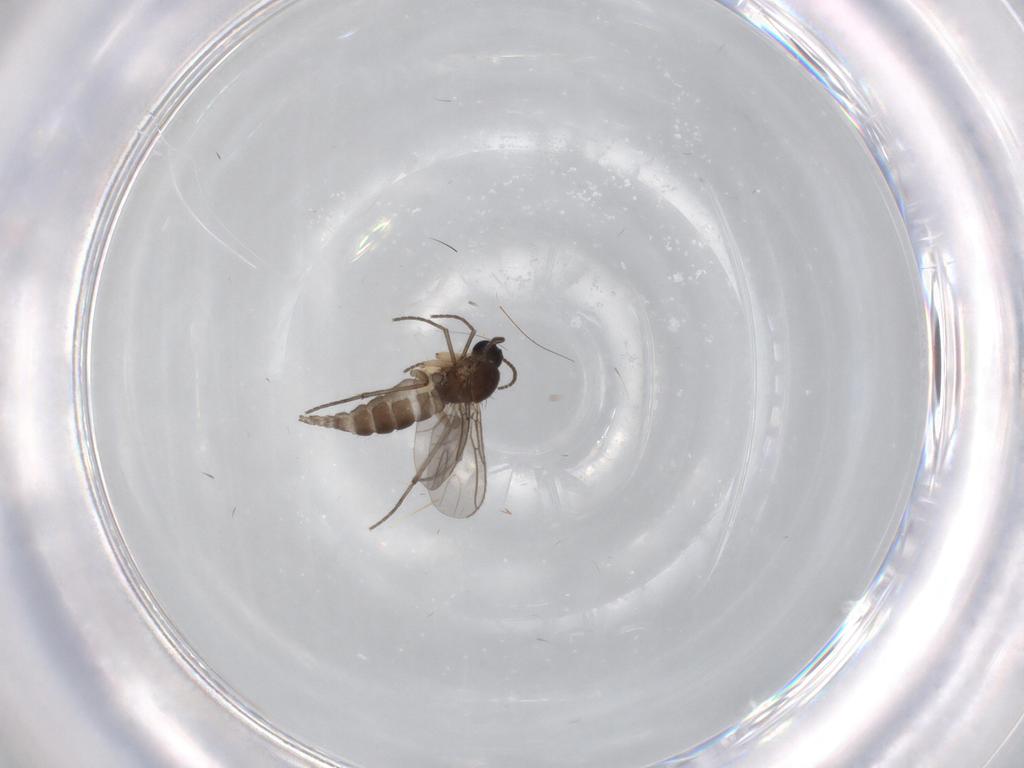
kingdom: Animalia
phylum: Arthropoda
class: Insecta
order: Diptera
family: Sciaridae
